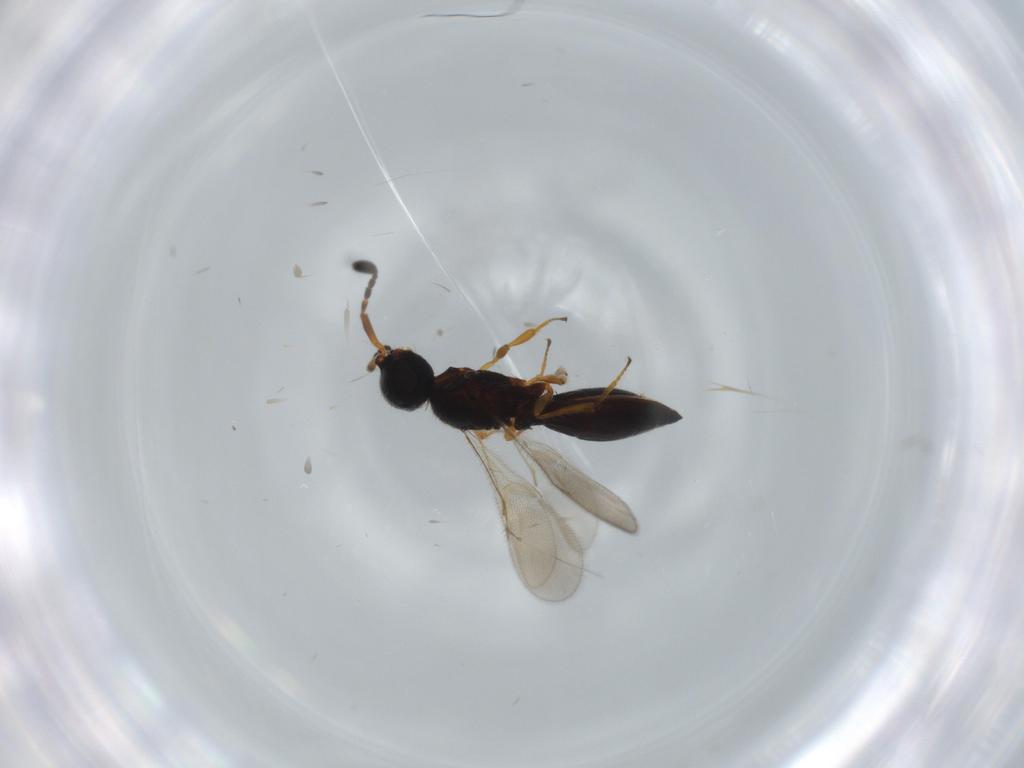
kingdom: Animalia
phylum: Arthropoda
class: Insecta
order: Hymenoptera
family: Scelionidae
